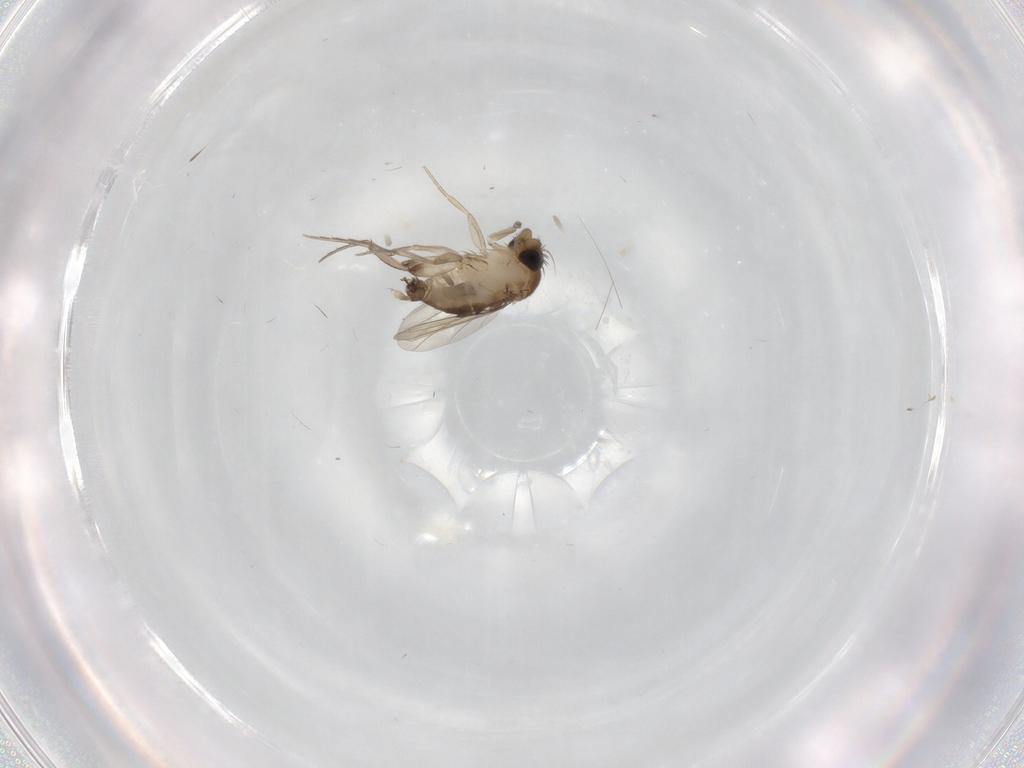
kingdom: Animalia
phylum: Arthropoda
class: Insecta
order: Diptera
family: Phoridae
